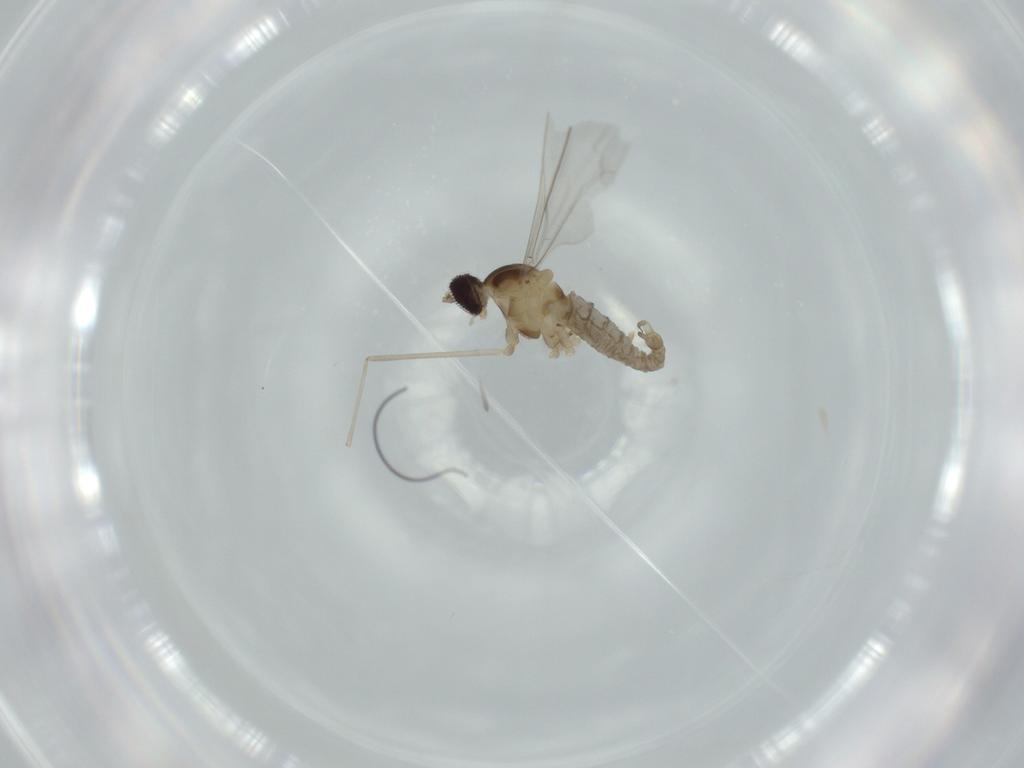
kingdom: Animalia
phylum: Arthropoda
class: Insecta
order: Diptera
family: Cecidomyiidae
